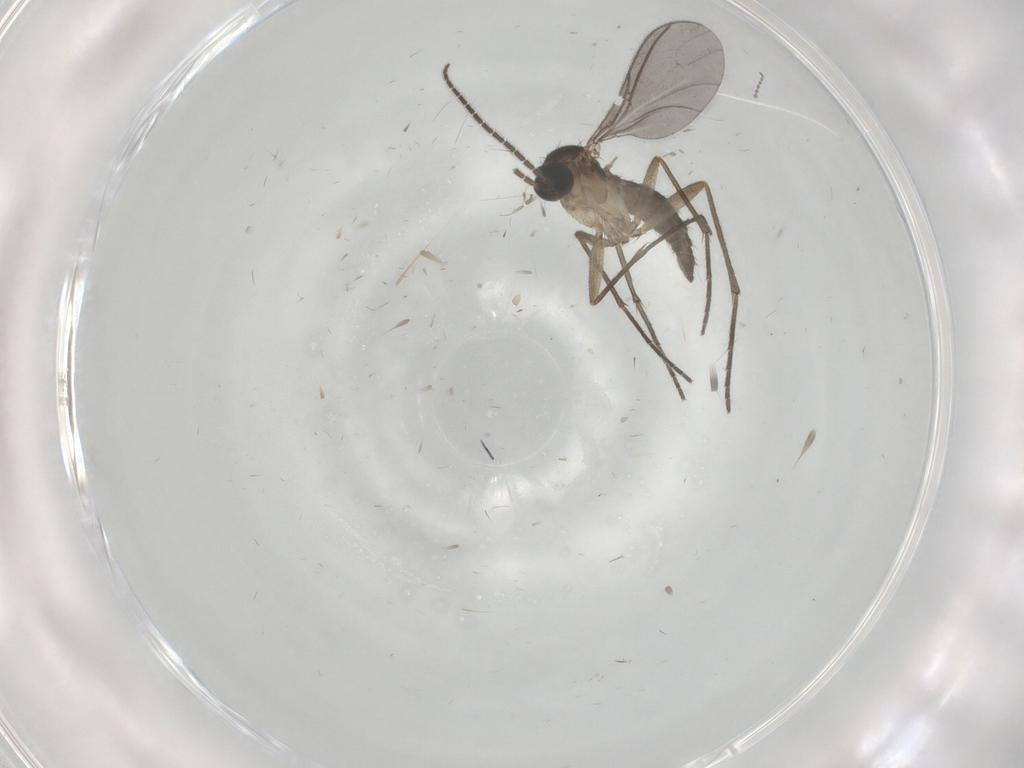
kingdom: Animalia
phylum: Arthropoda
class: Insecta
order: Diptera
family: Sciaridae
